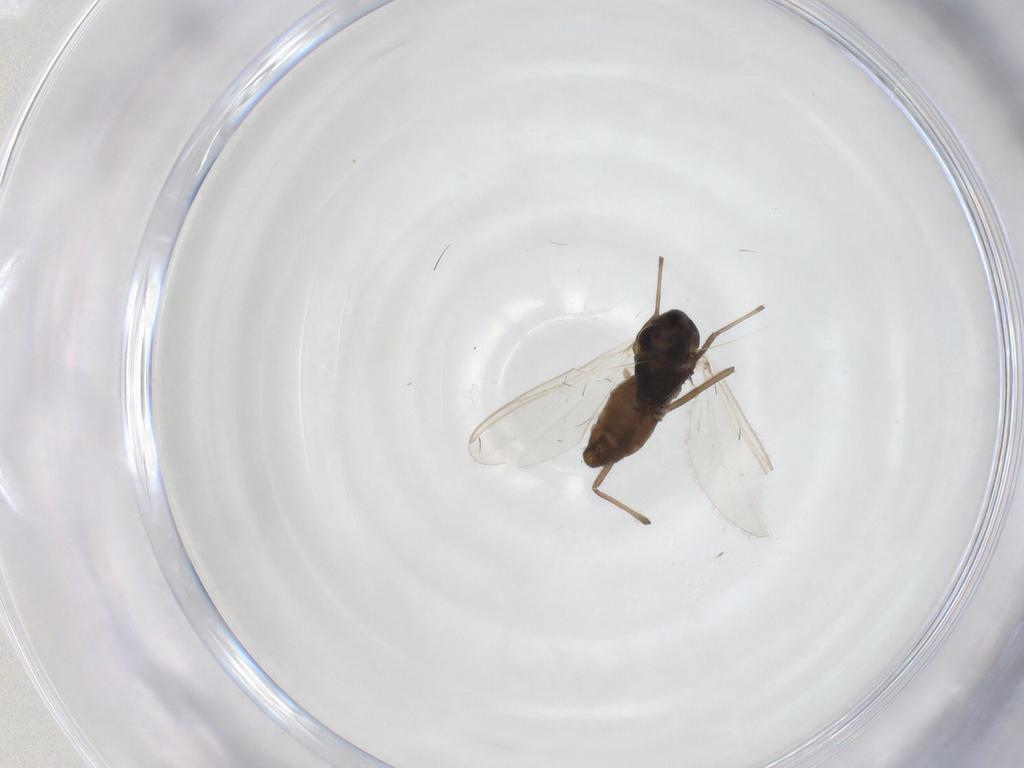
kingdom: Animalia
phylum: Arthropoda
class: Insecta
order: Diptera
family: Chironomidae
